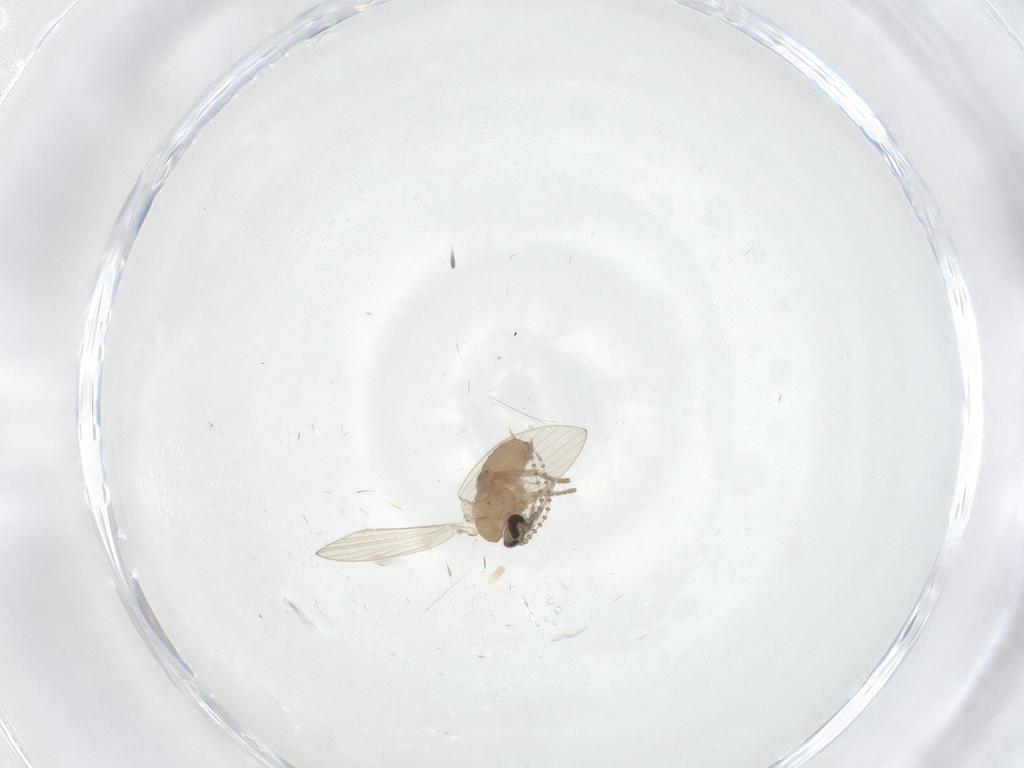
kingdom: Animalia
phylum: Arthropoda
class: Insecta
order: Diptera
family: Psychodidae
